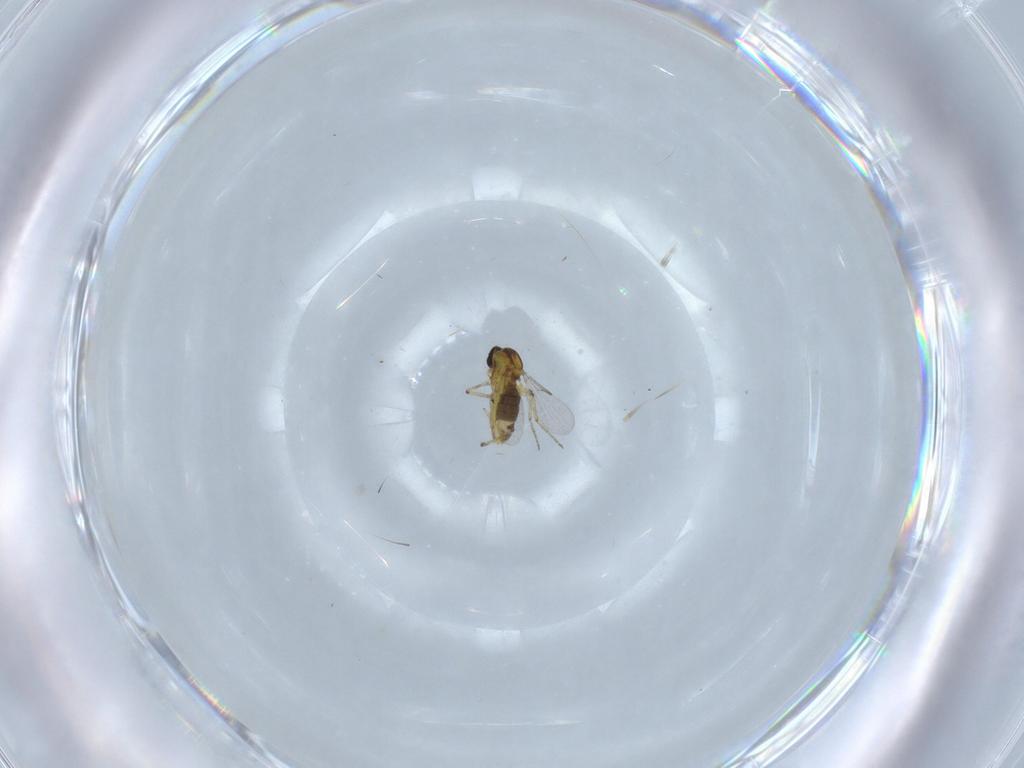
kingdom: Animalia
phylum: Arthropoda
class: Insecta
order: Diptera
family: Ceratopogonidae
